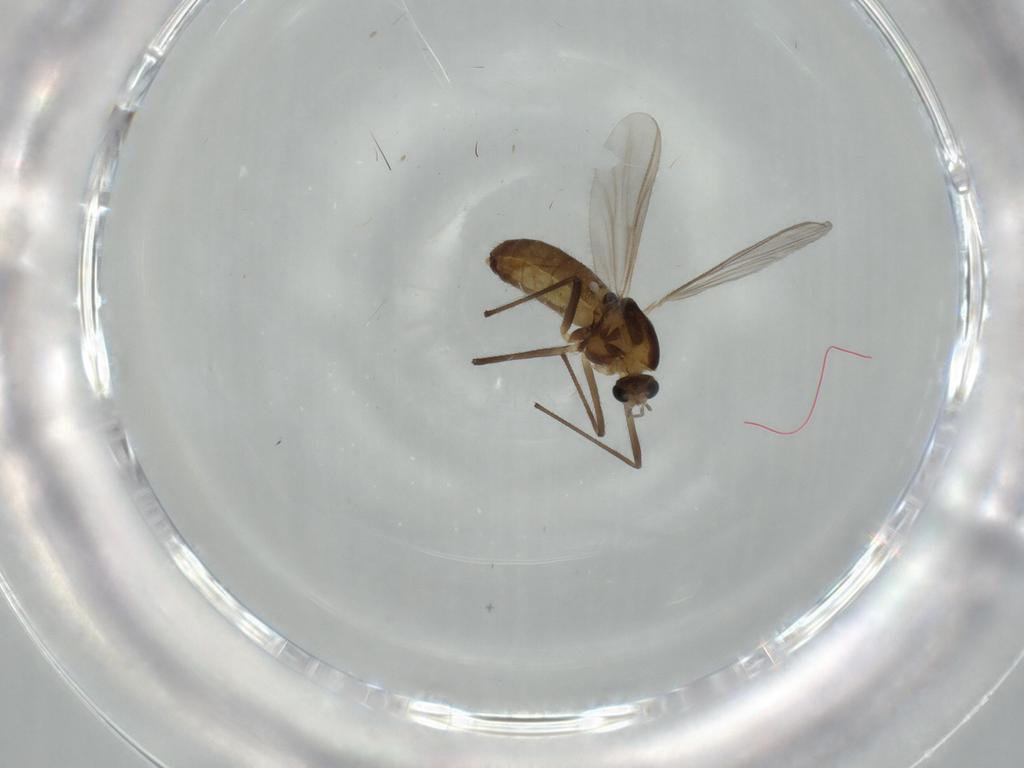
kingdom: Animalia
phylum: Arthropoda
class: Insecta
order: Diptera
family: Chironomidae
